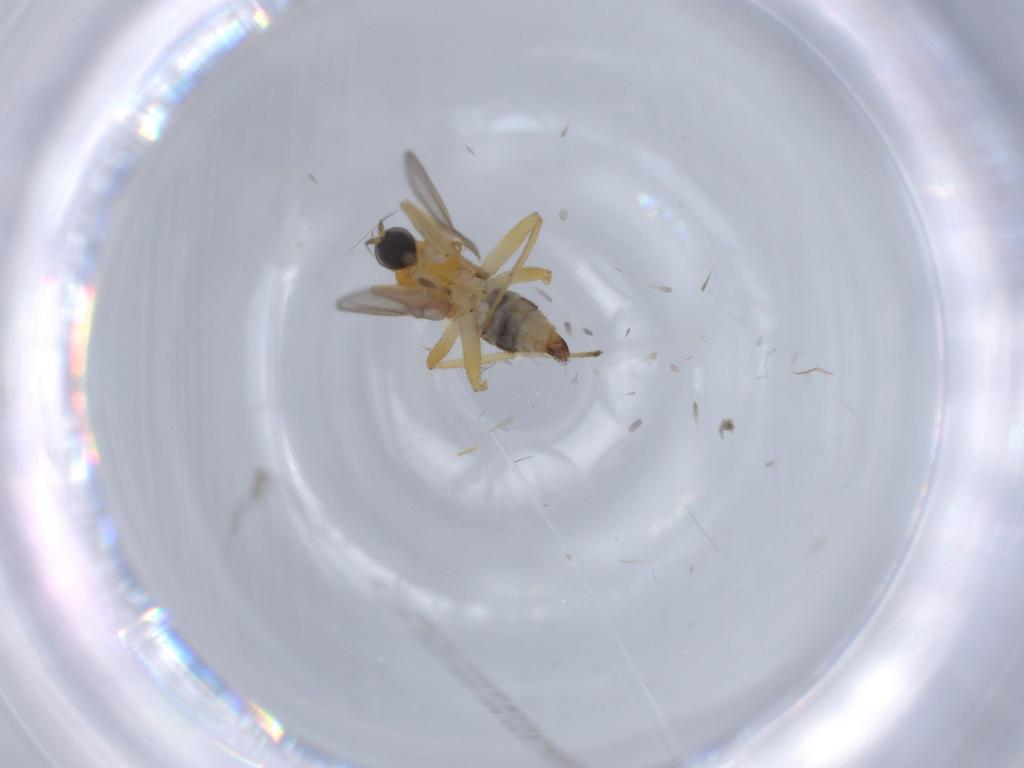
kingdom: Animalia
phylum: Arthropoda
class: Insecta
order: Diptera
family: Hybotidae
